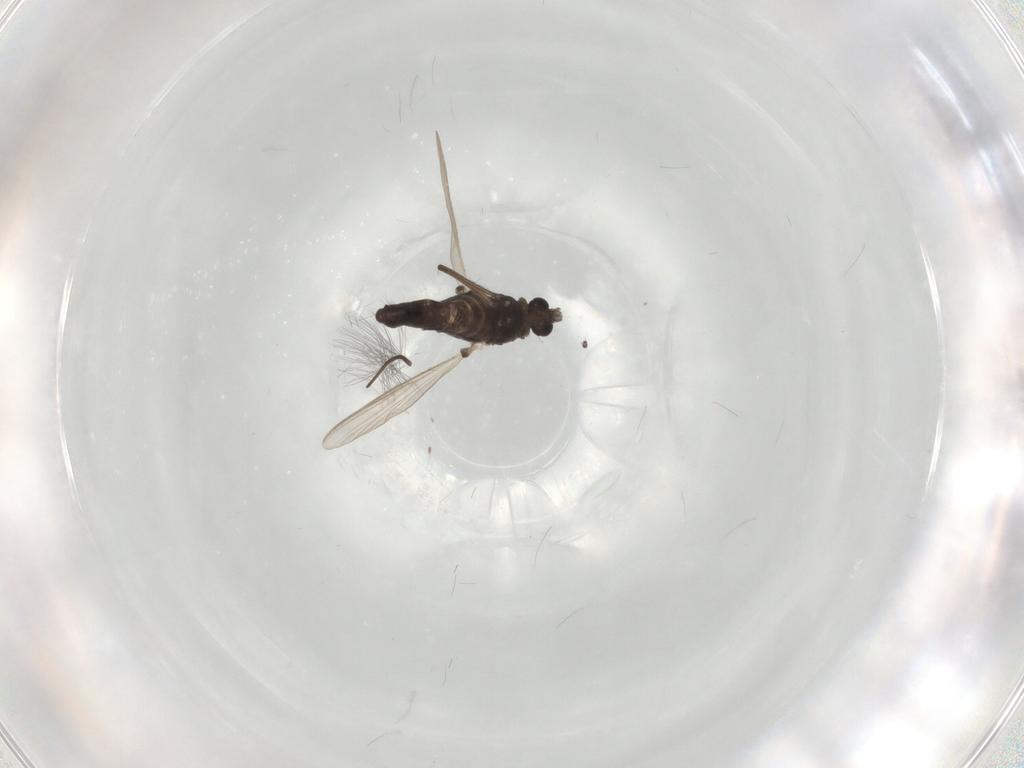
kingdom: Animalia
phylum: Arthropoda
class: Insecta
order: Diptera
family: Chironomidae
